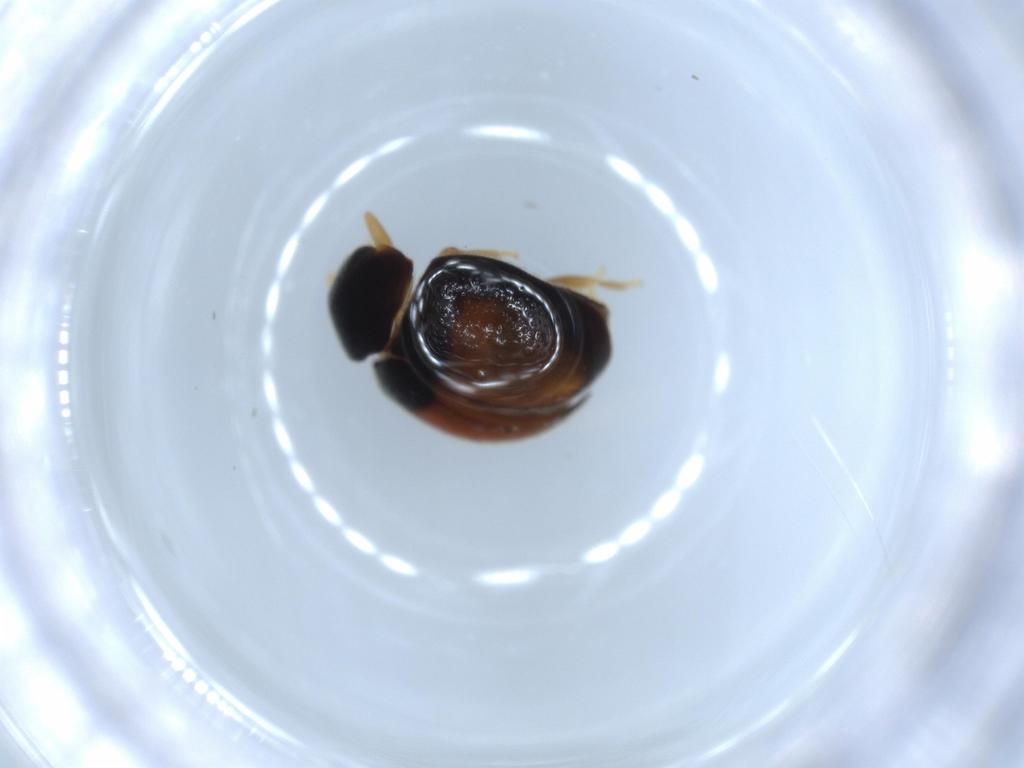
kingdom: Animalia
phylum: Arthropoda
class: Insecta
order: Coleoptera
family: Coccinellidae
